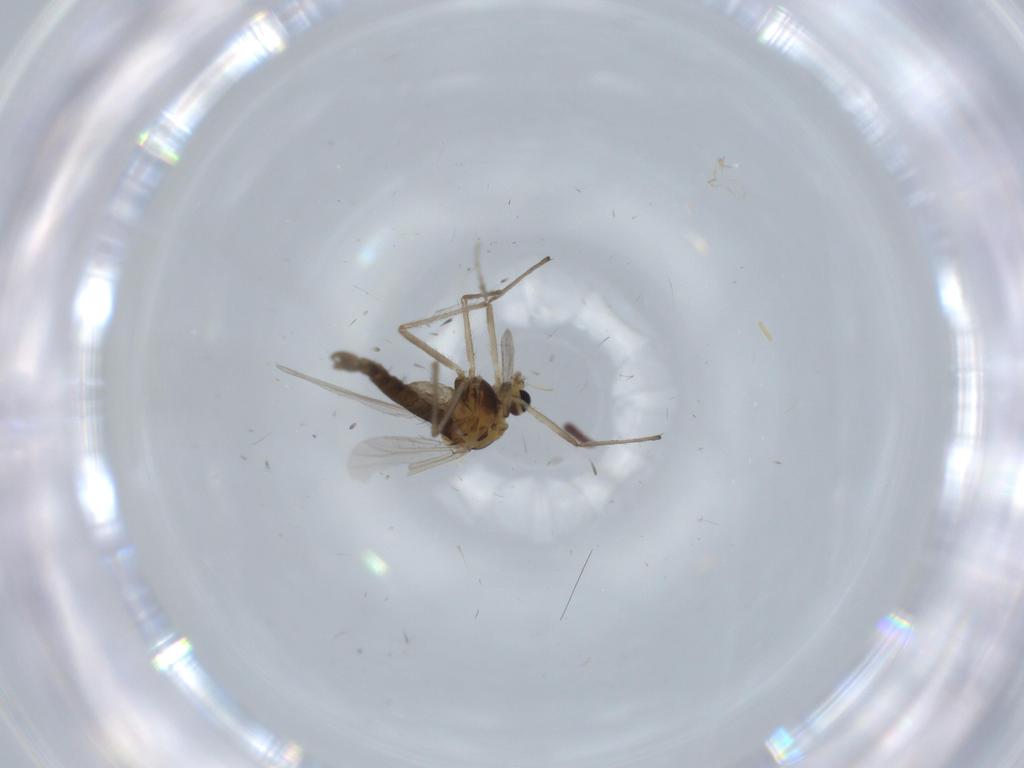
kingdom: Animalia
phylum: Arthropoda
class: Insecta
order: Diptera
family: Chironomidae
